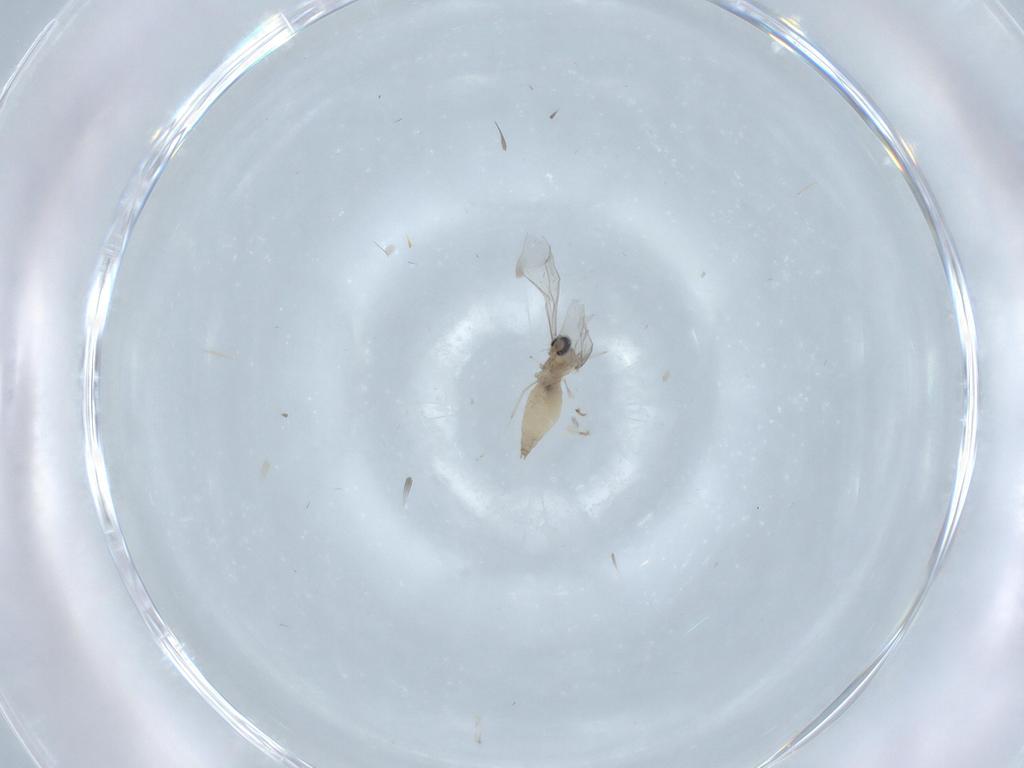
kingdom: Animalia
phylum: Arthropoda
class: Insecta
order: Diptera
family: Cecidomyiidae
